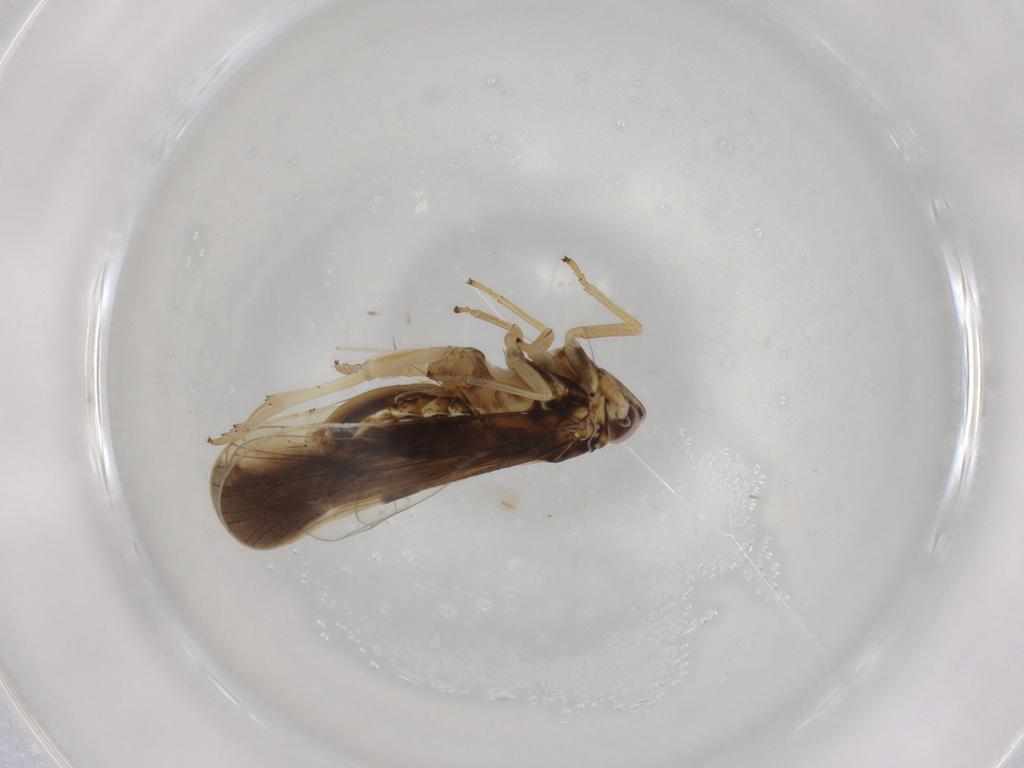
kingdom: Animalia
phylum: Arthropoda
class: Insecta
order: Hemiptera
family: Delphacidae
